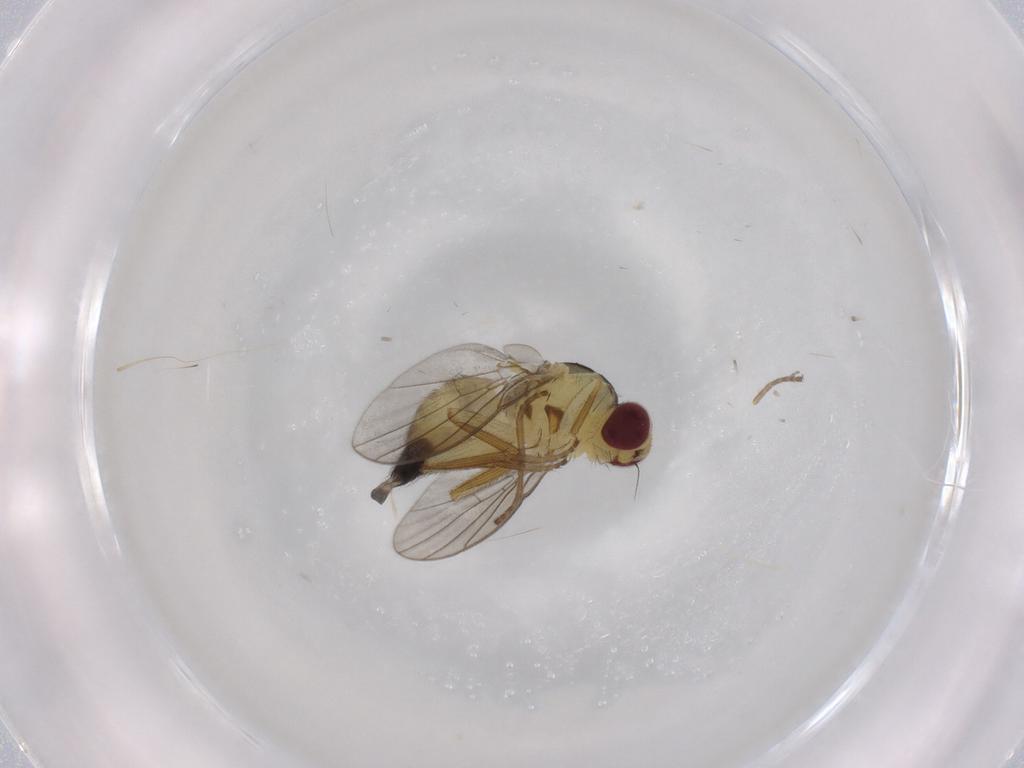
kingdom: Animalia
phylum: Arthropoda
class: Insecta
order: Diptera
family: Agromyzidae
